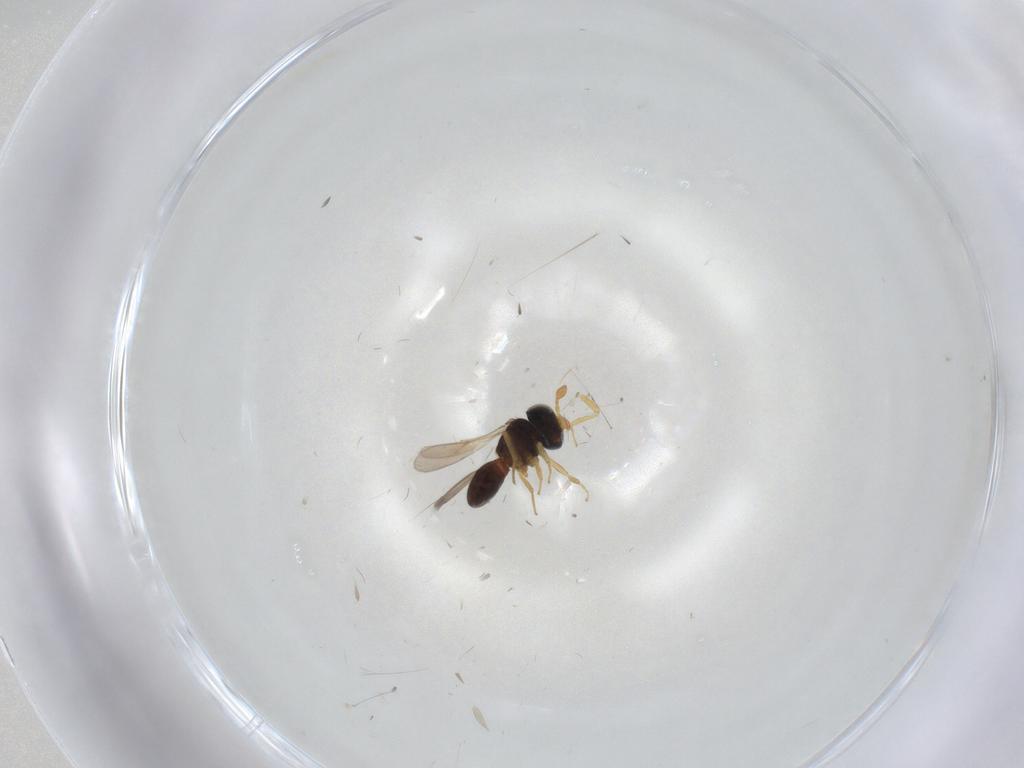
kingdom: Animalia
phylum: Arthropoda
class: Insecta
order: Hymenoptera
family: Scelionidae
